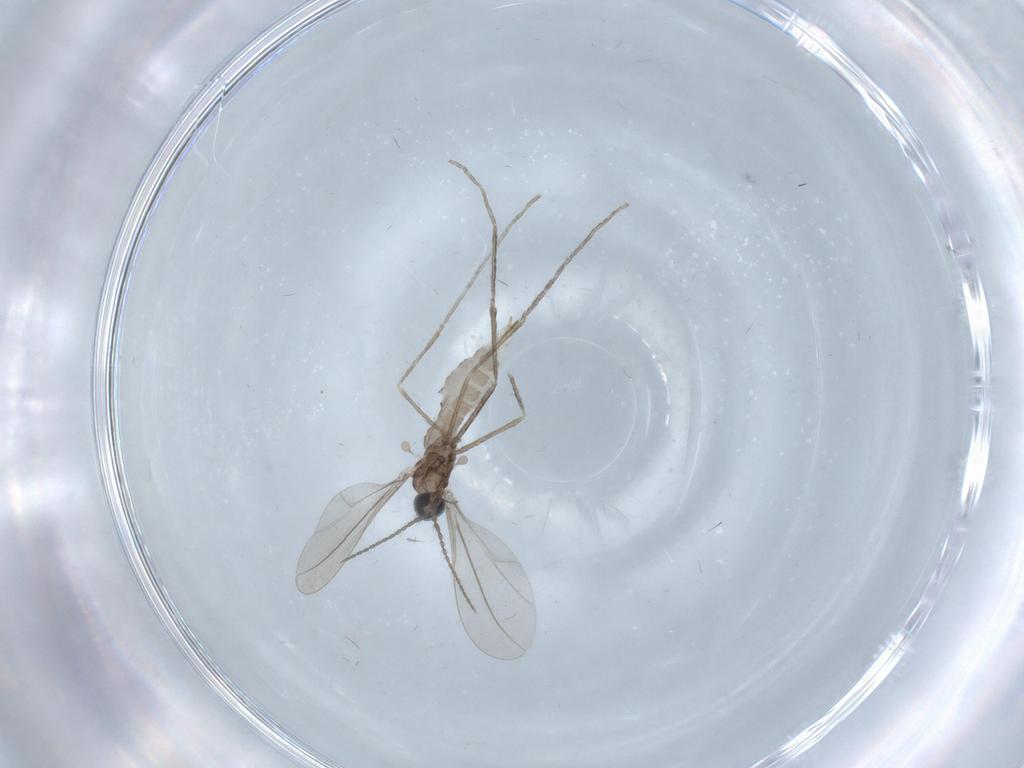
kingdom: Animalia
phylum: Arthropoda
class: Insecta
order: Diptera
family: Cecidomyiidae
